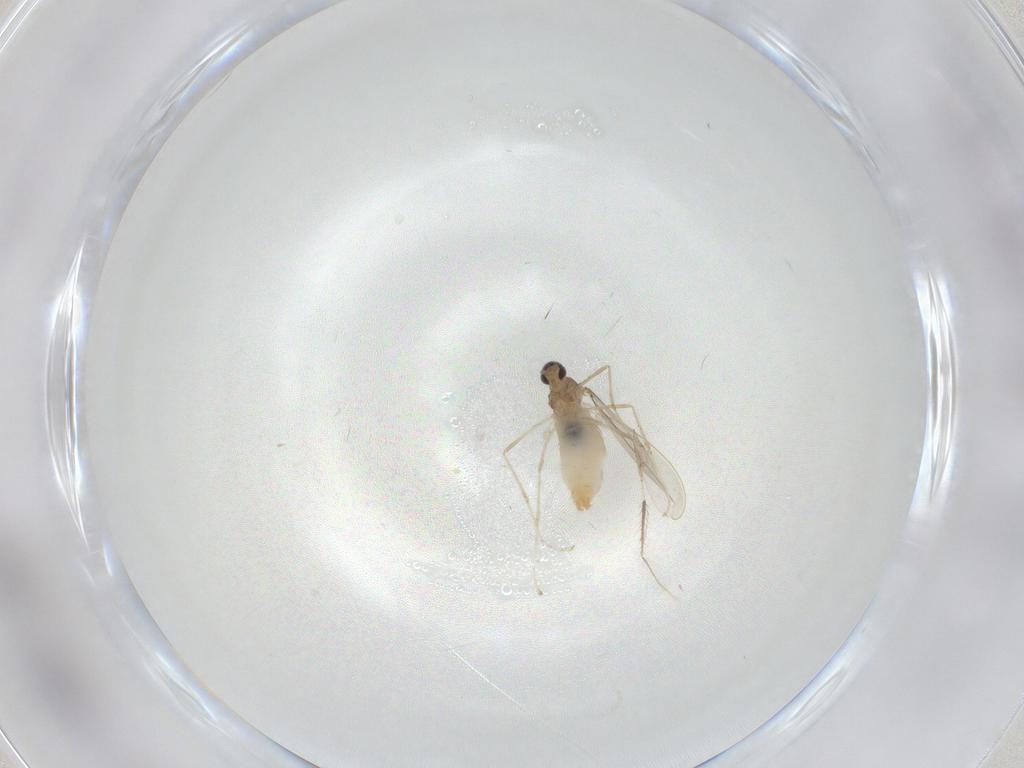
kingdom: Animalia
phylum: Arthropoda
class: Insecta
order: Diptera
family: Cecidomyiidae
